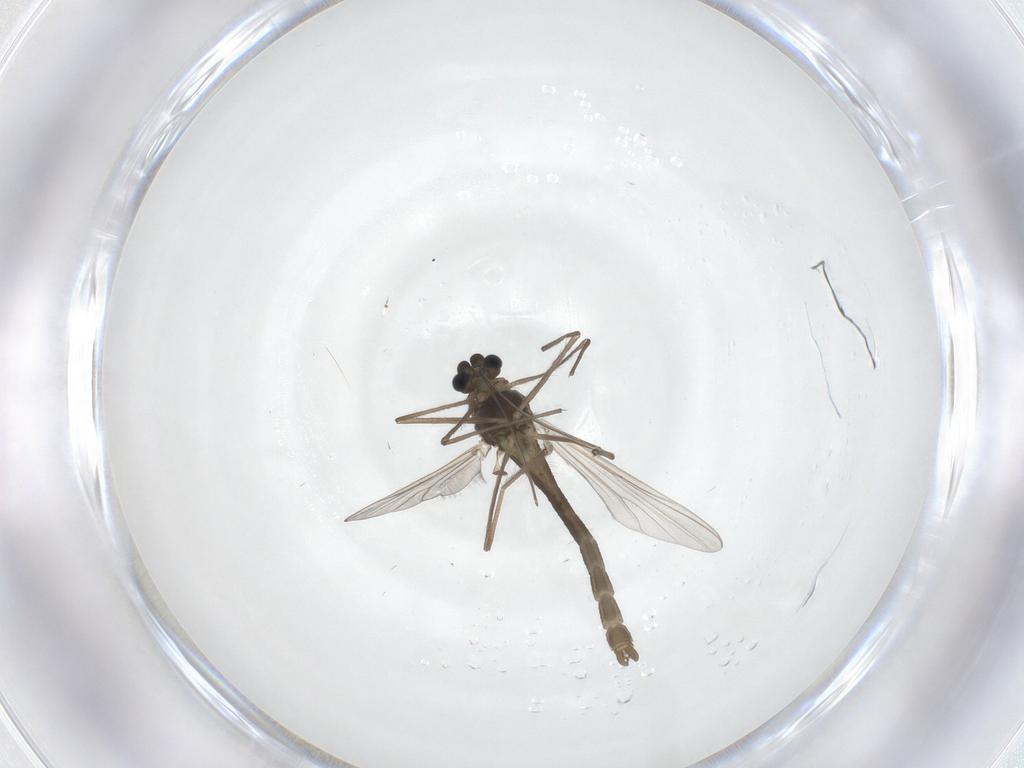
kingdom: Animalia
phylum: Arthropoda
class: Insecta
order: Diptera
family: Chironomidae
